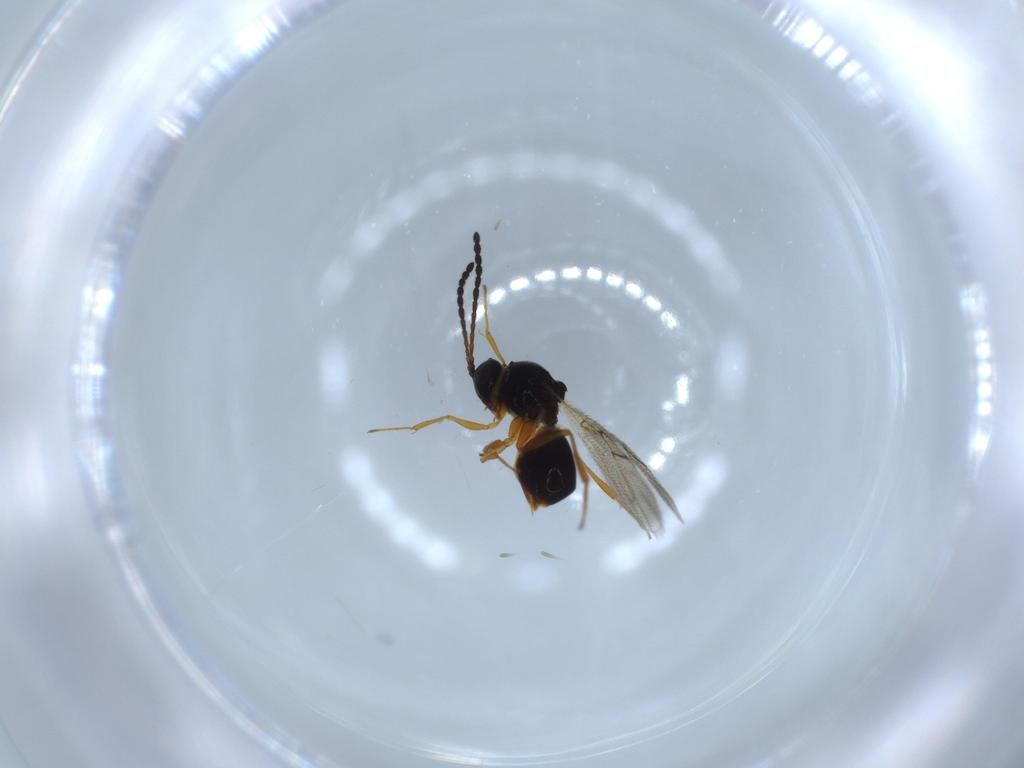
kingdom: Animalia
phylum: Arthropoda
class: Insecta
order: Hymenoptera
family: Figitidae
